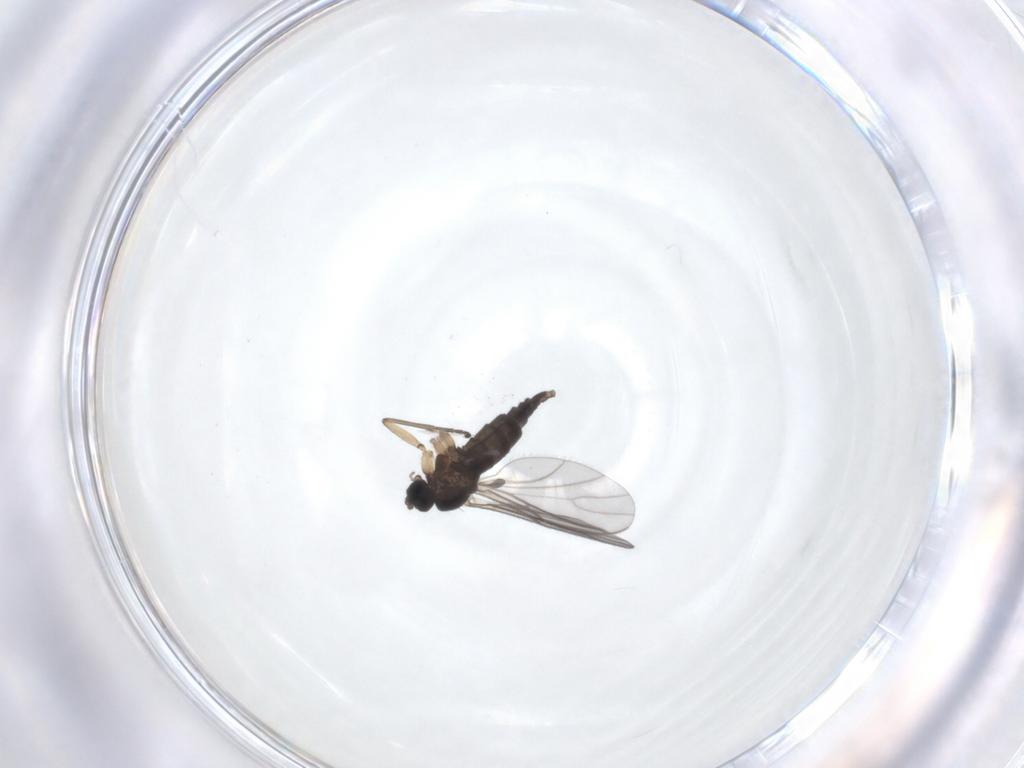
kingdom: Animalia
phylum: Arthropoda
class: Insecta
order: Diptera
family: Sciaridae
